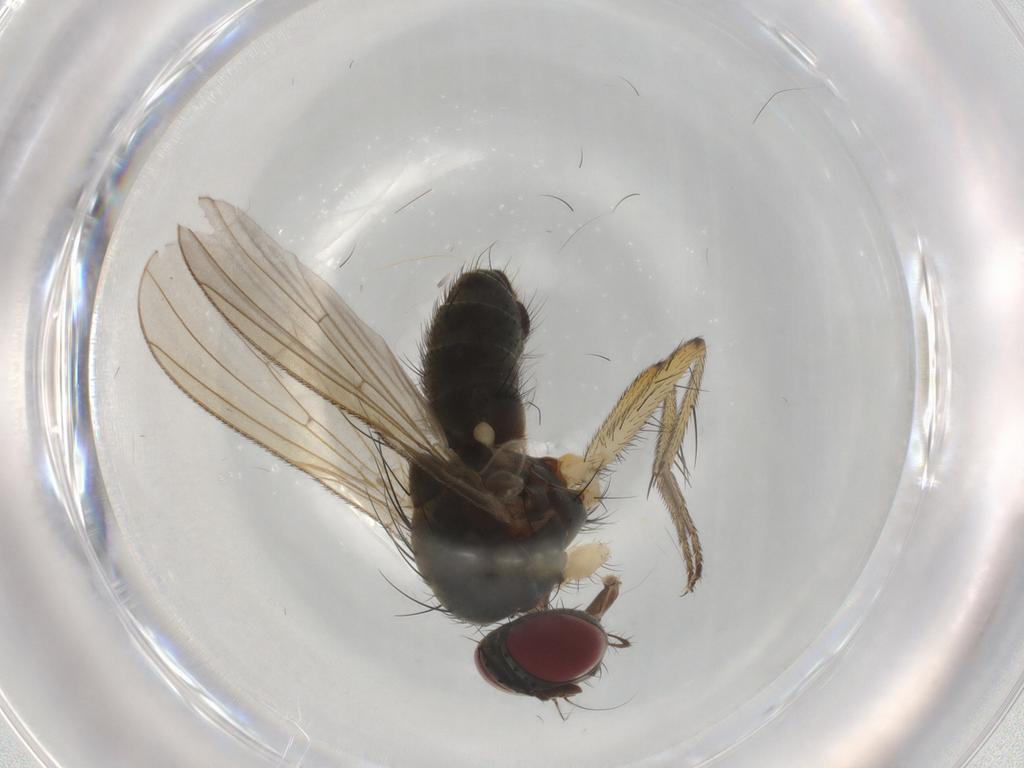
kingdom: Animalia
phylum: Arthropoda
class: Insecta
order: Diptera
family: Muscidae
